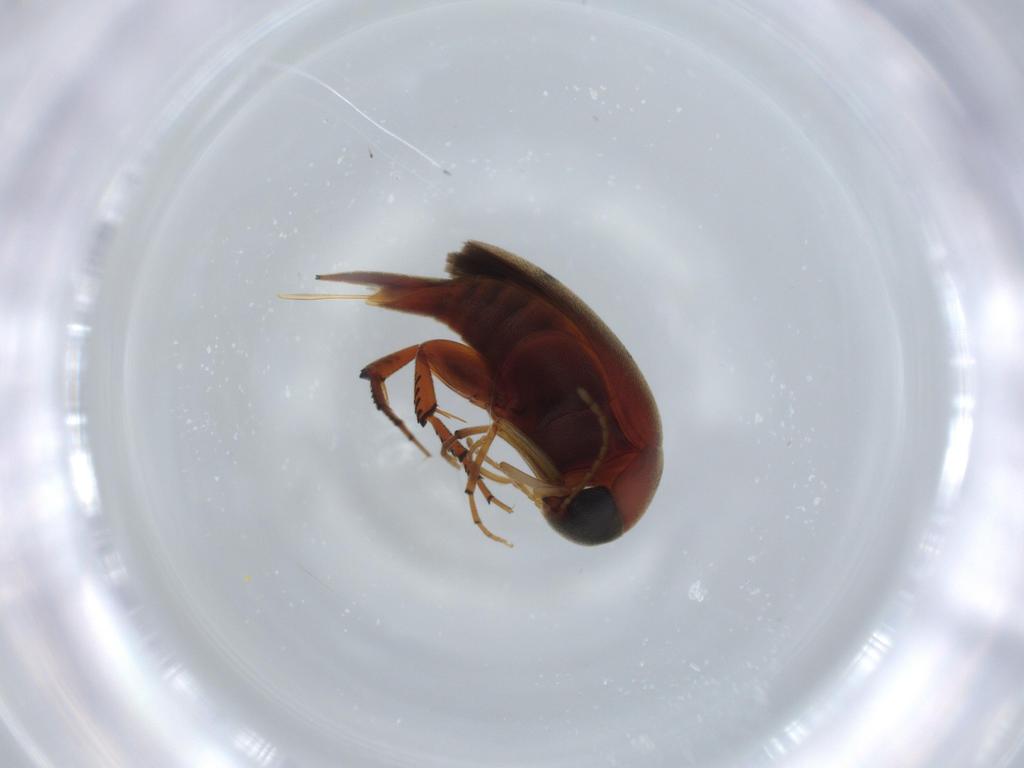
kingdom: Animalia
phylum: Arthropoda
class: Insecta
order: Coleoptera
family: Mordellidae
